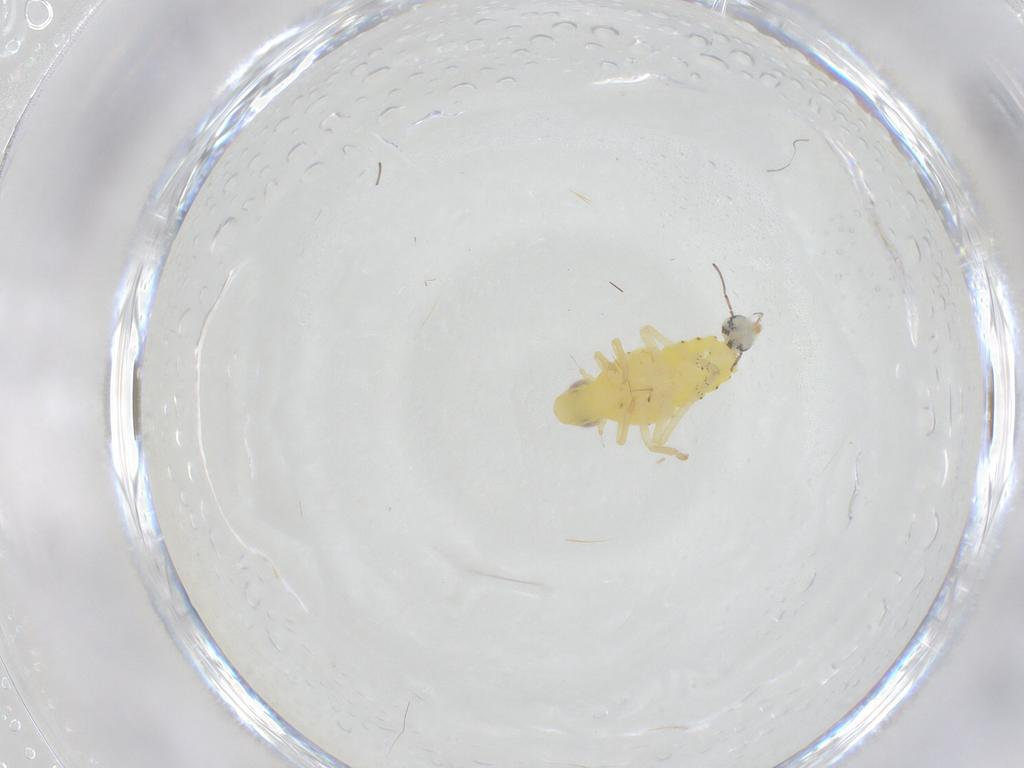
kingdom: Animalia
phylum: Arthropoda
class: Insecta
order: Hemiptera
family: Tropiduchidae
